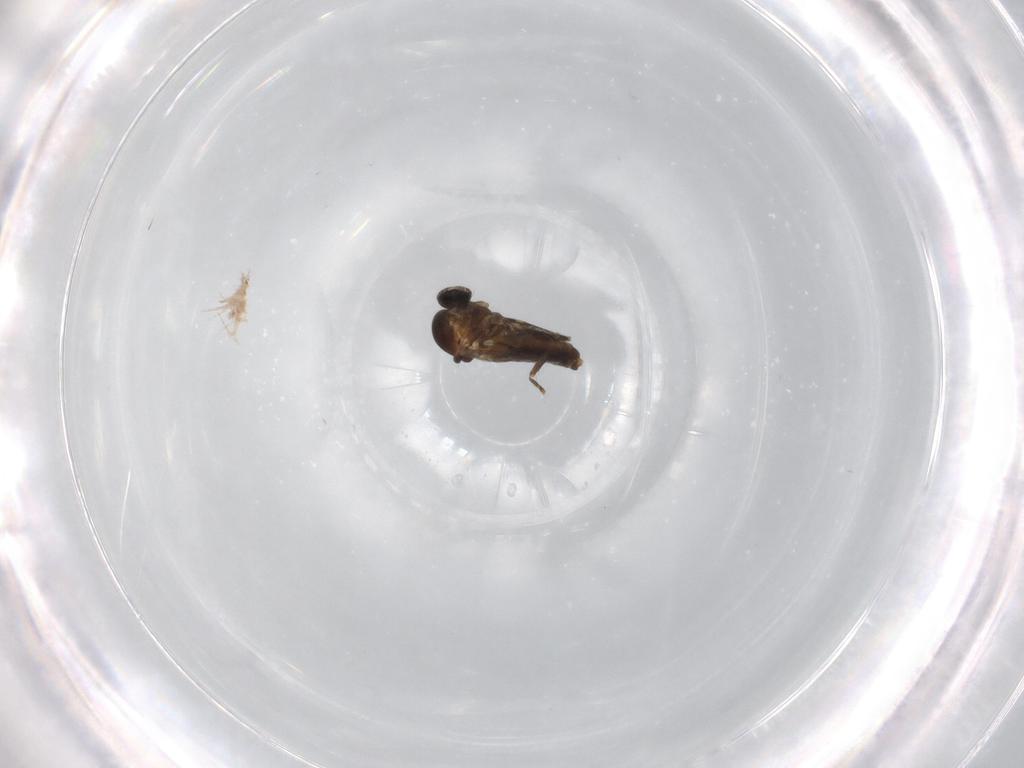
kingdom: Animalia
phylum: Arthropoda
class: Insecta
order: Diptera
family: Ceratopogonidae
